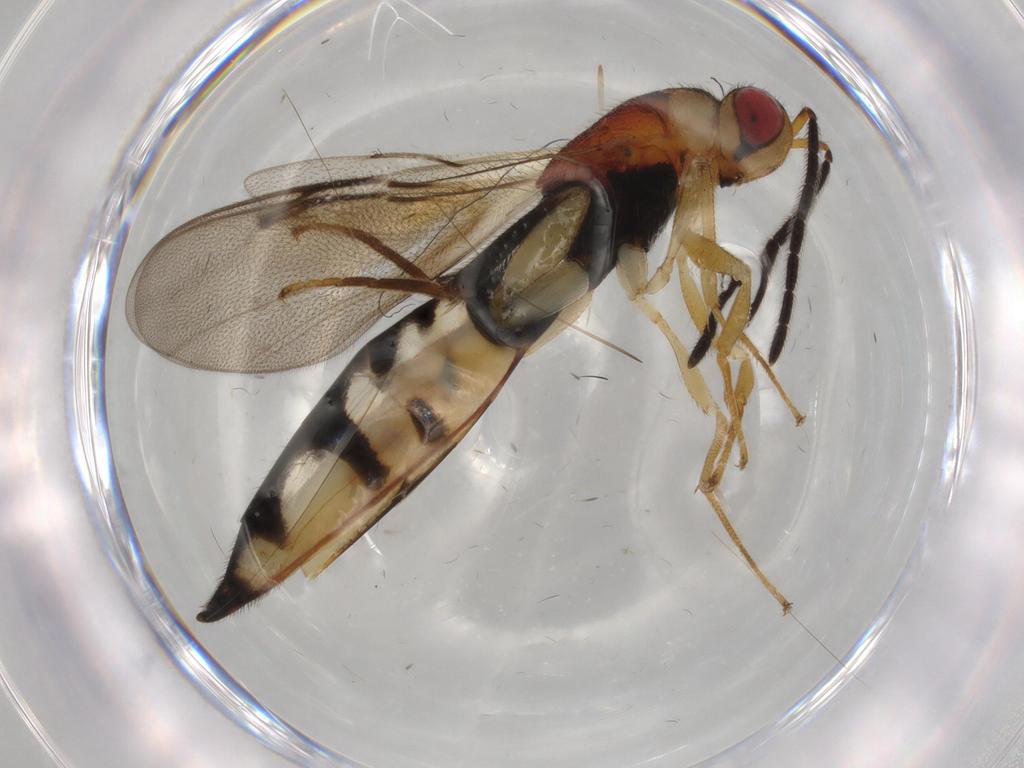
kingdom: Animalia
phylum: Arthropoda
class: Insecta
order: Hymenoptera
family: Eurytomidae
